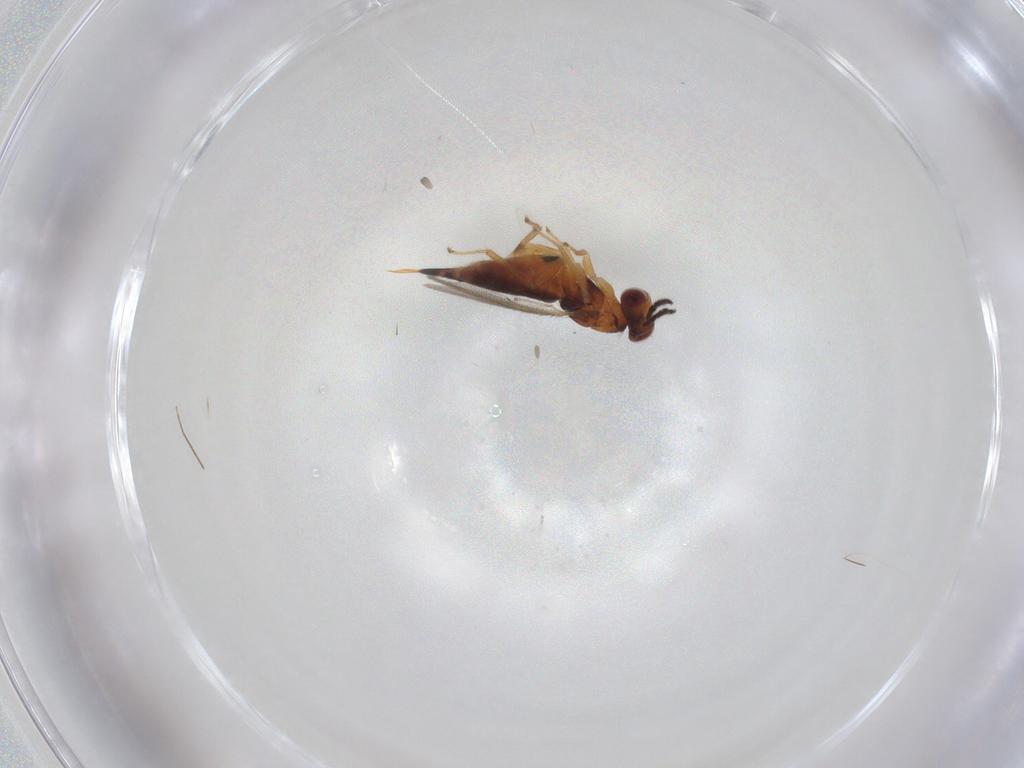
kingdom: Animalia
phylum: Arthropoda
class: Insecta
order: Hymenoptera
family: Eulophidae
